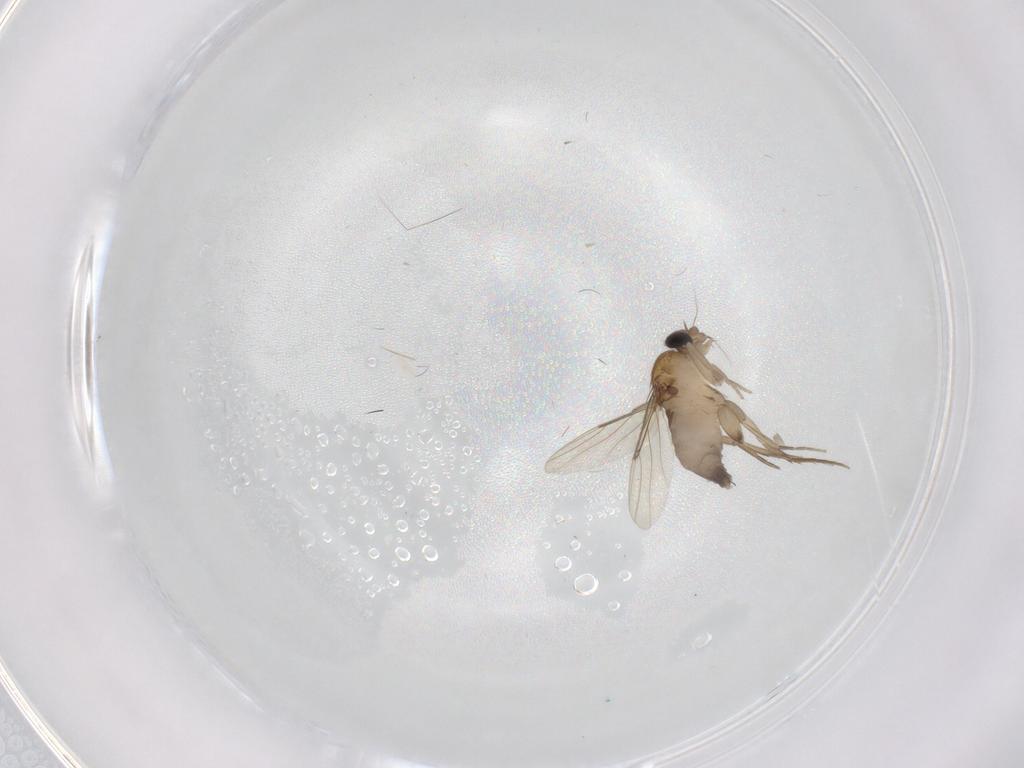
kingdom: Animalia
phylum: Arthropoda
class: Insecta
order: Diptera
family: Phoridae
